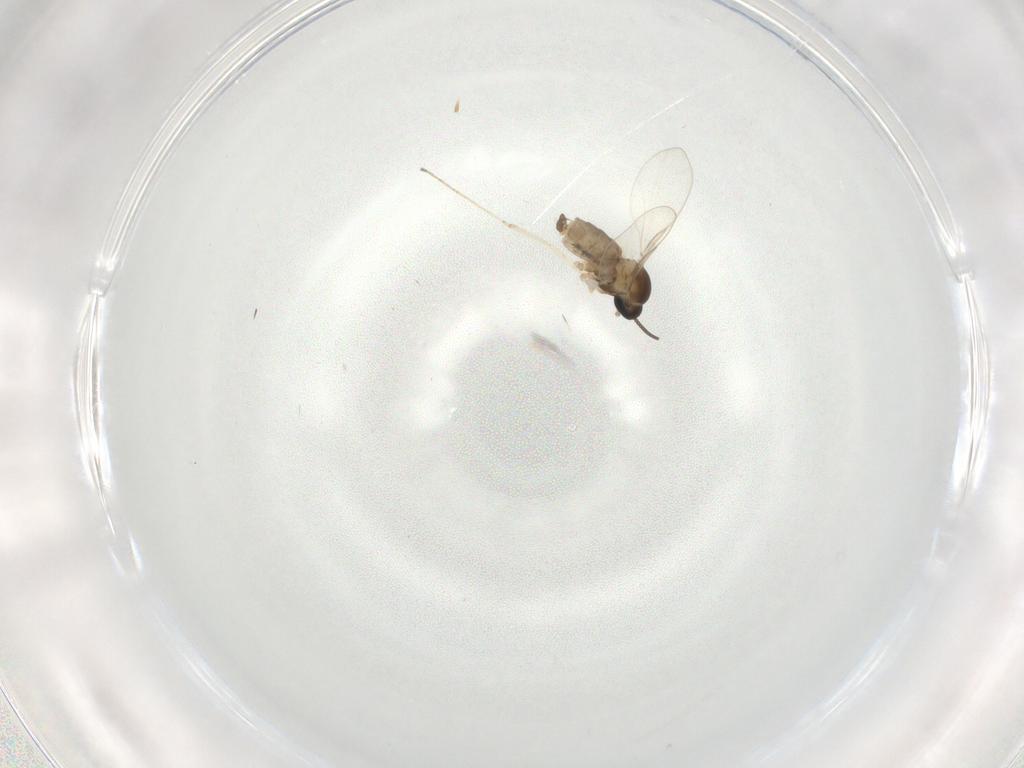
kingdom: Animalia
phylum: Arthropoda
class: Insecta
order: Diptera
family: Cecidomyiidae
